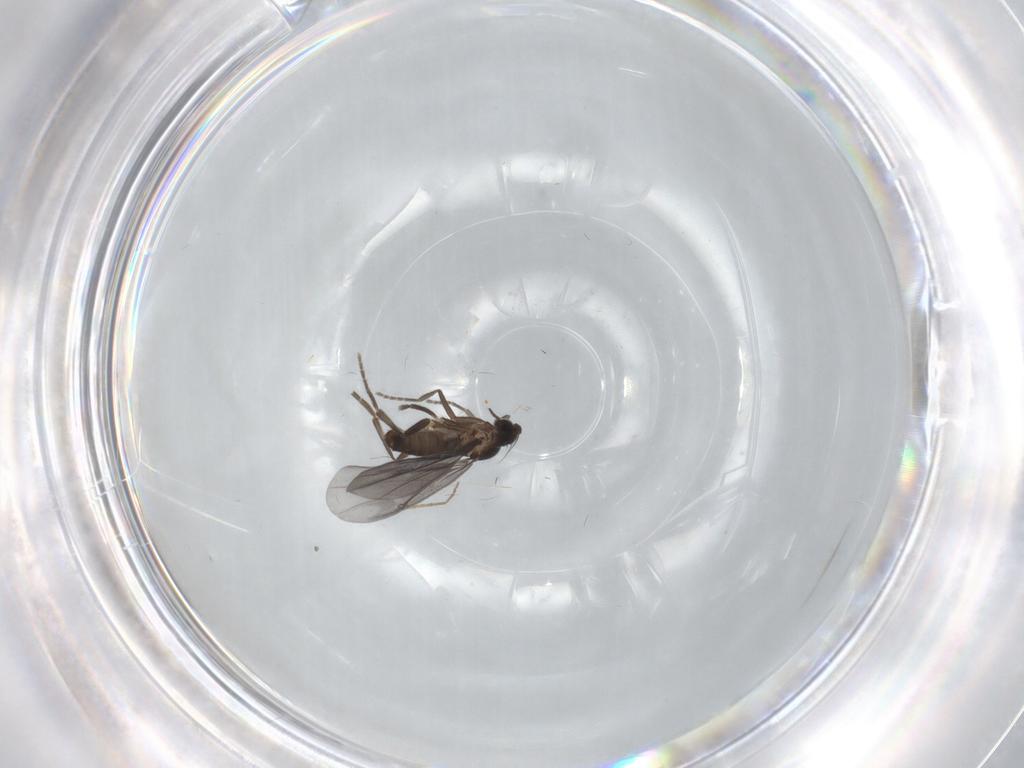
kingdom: Animalia
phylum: Arthropoda
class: Insecta
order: Diptera
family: Phoridae
